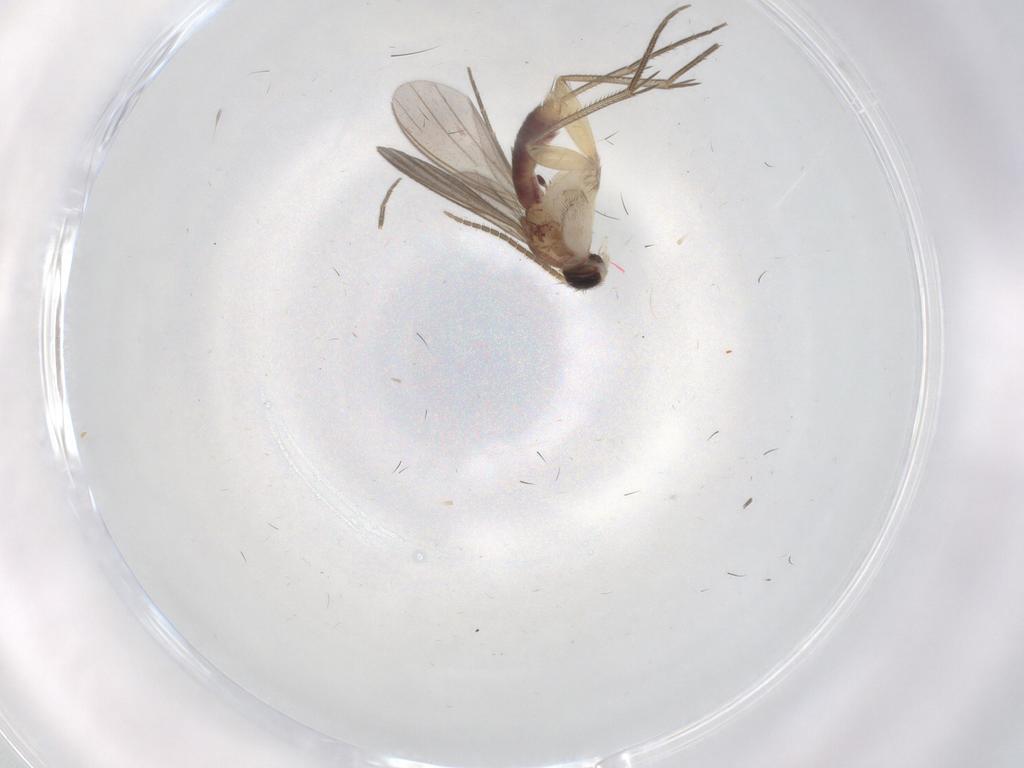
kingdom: Animalia
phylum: Arthropoda
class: Insecta
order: Diptera
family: Mycetophilidae
